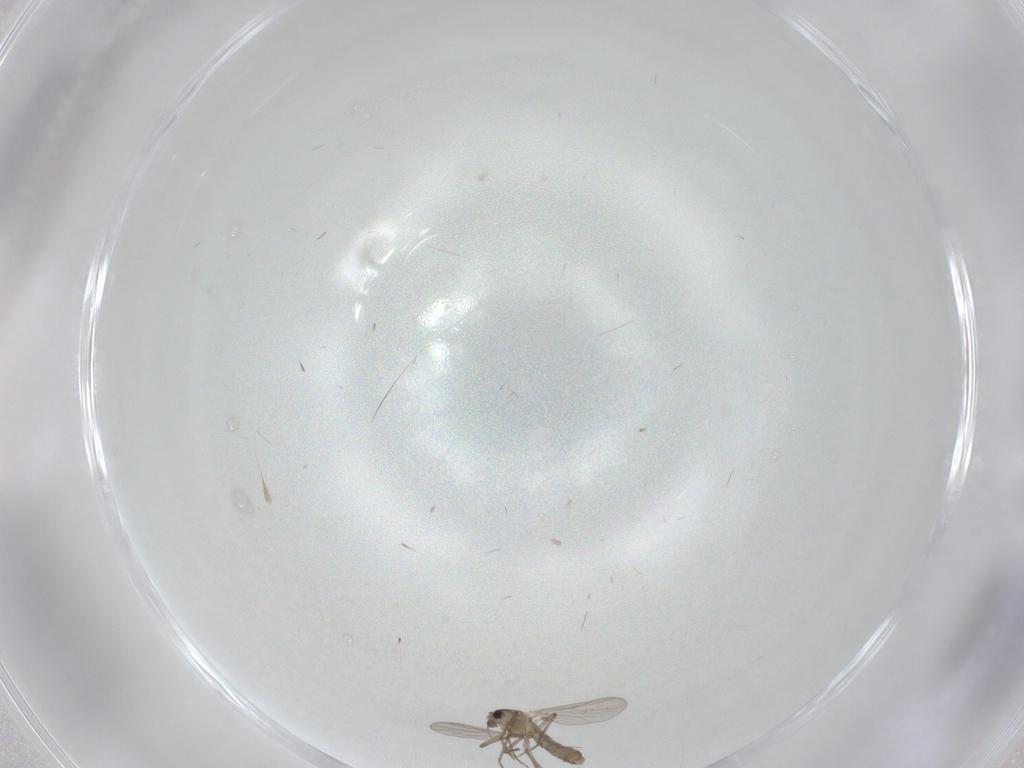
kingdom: Animalia
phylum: Arthropoda
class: Insecta
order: Diptera
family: Chironomidae
